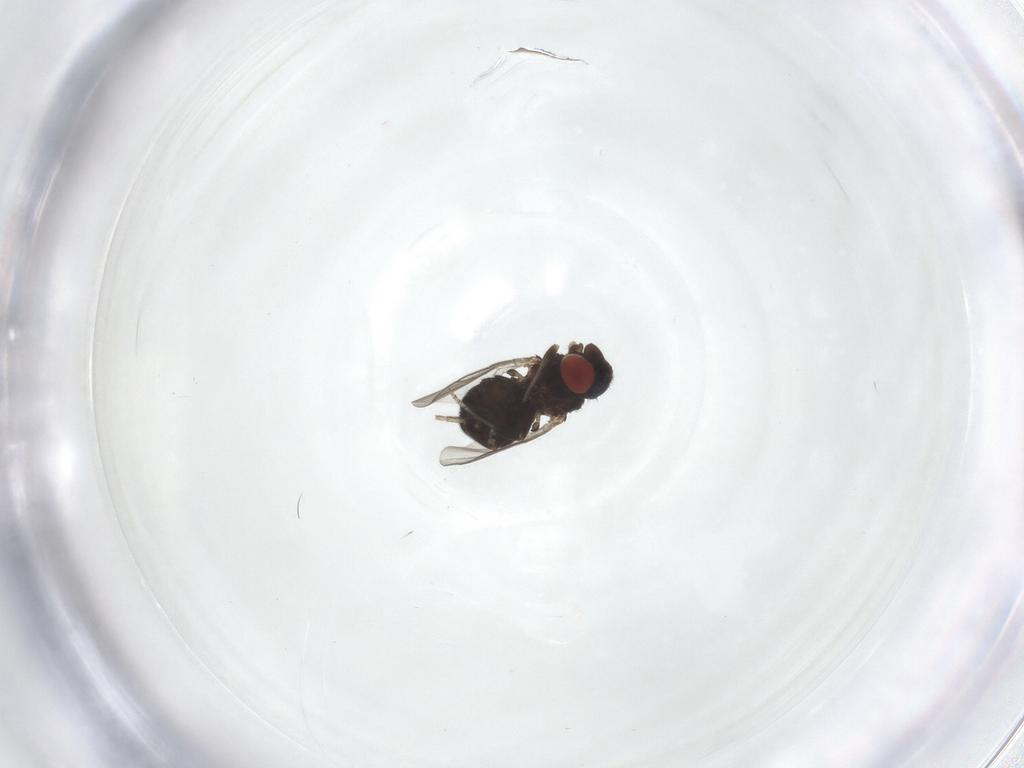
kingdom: Animalia
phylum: Arthropoda
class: Insecta
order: Diptera
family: Cryptochetidae
